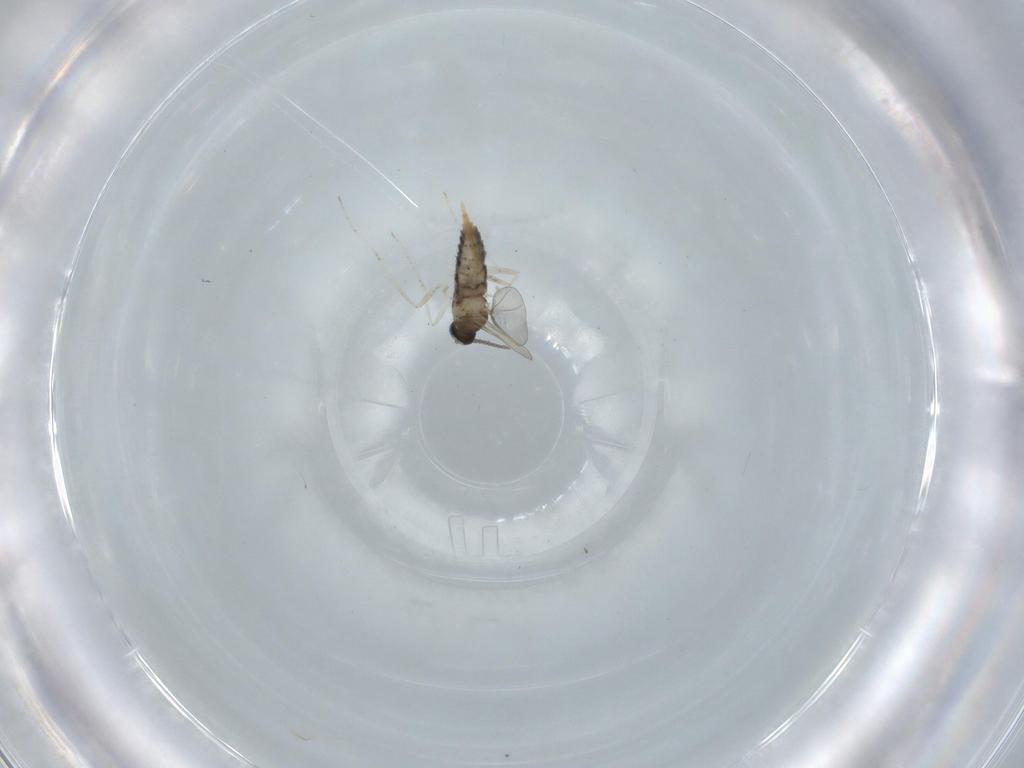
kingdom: Animalia
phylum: Arthropoda
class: Insecta
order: Diptera
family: Cecidomyiidae
